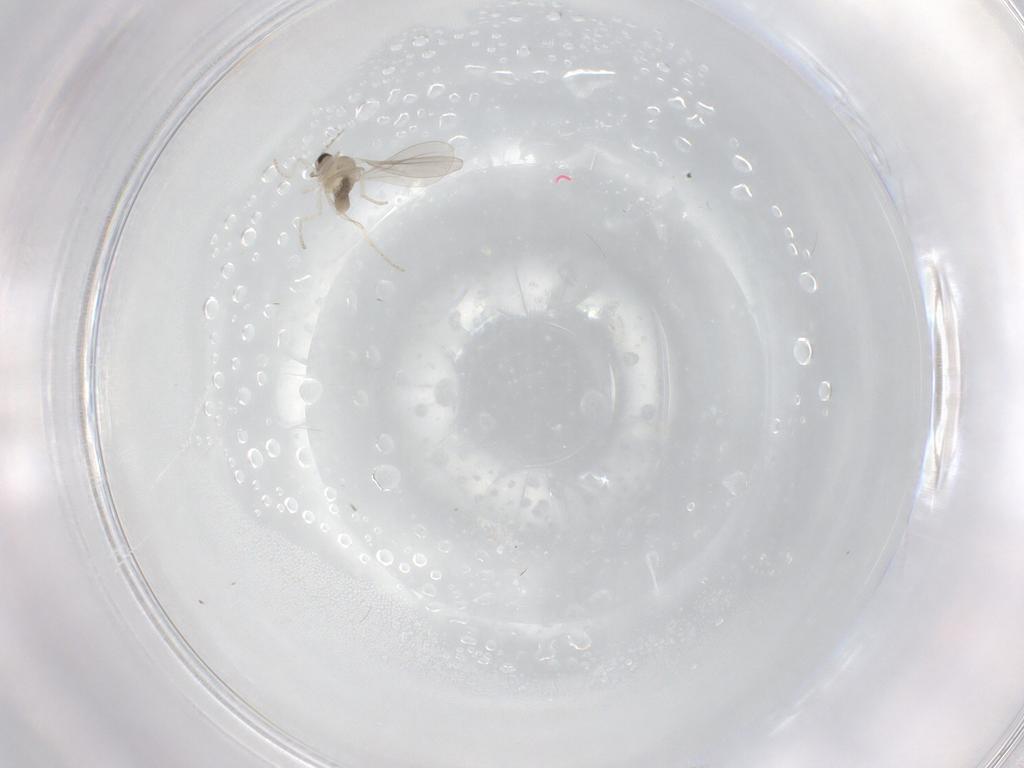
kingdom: Animalia
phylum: Arthropoda
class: Insecta
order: Diptera
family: Cecidomyiidae
